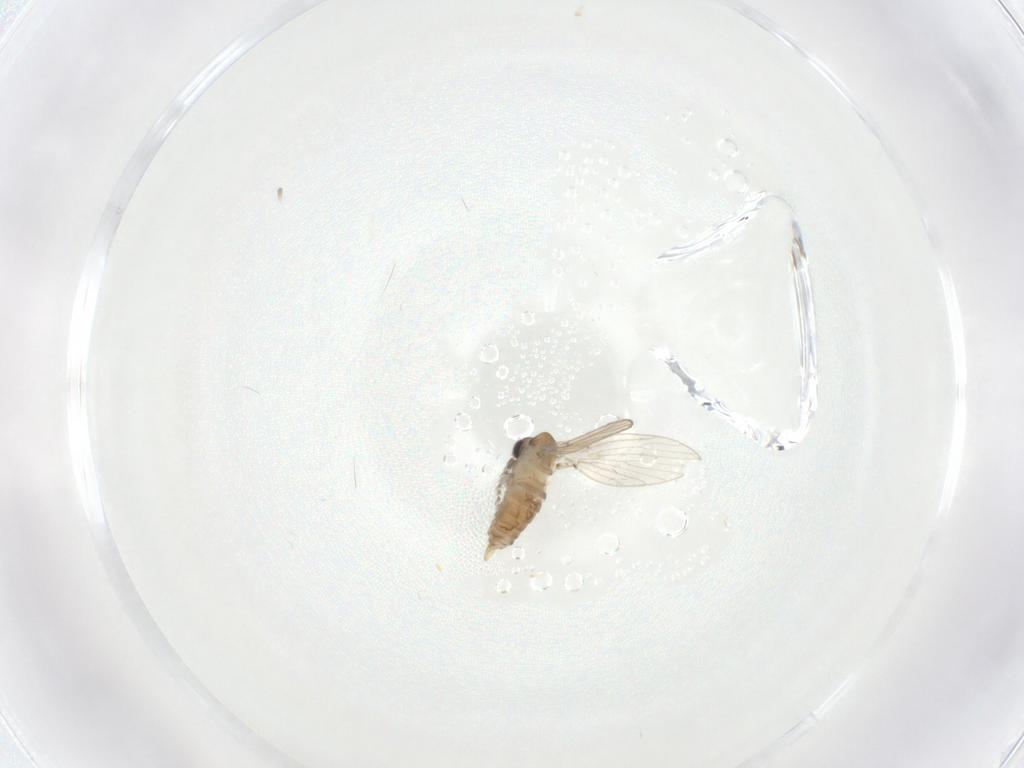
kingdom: Animalia
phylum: Arthropoda
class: Insecta
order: Diptera
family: Psychodidae
